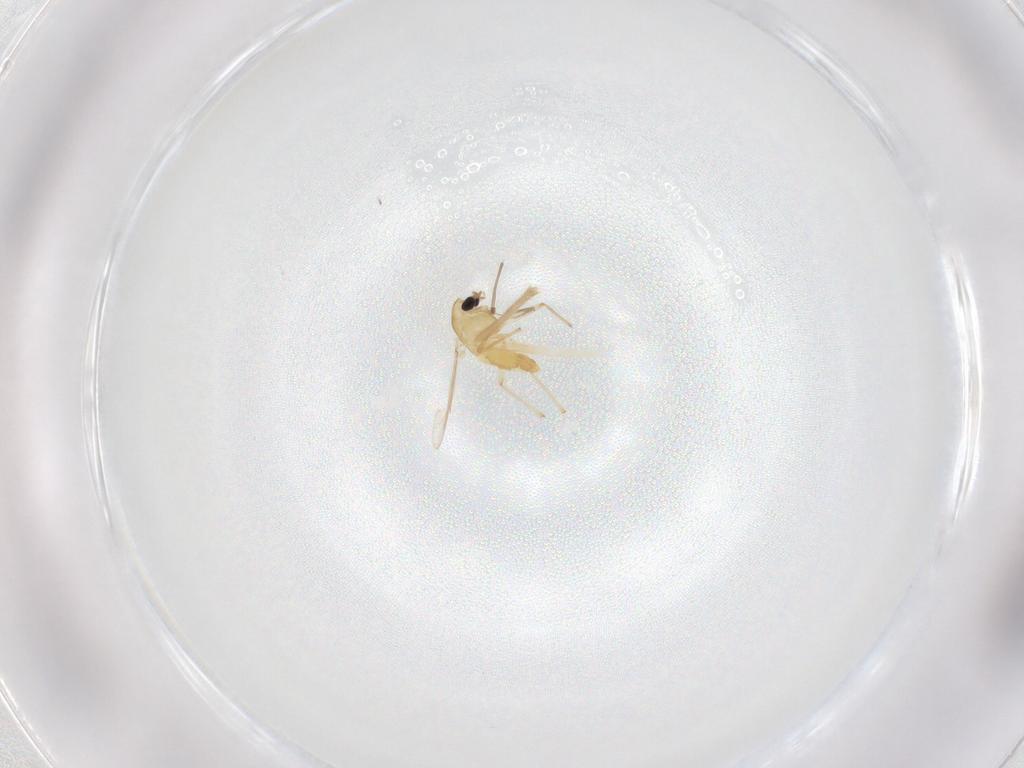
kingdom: Animalia
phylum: Arthropoda
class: Insecta
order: Diptera
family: Chironomidae
